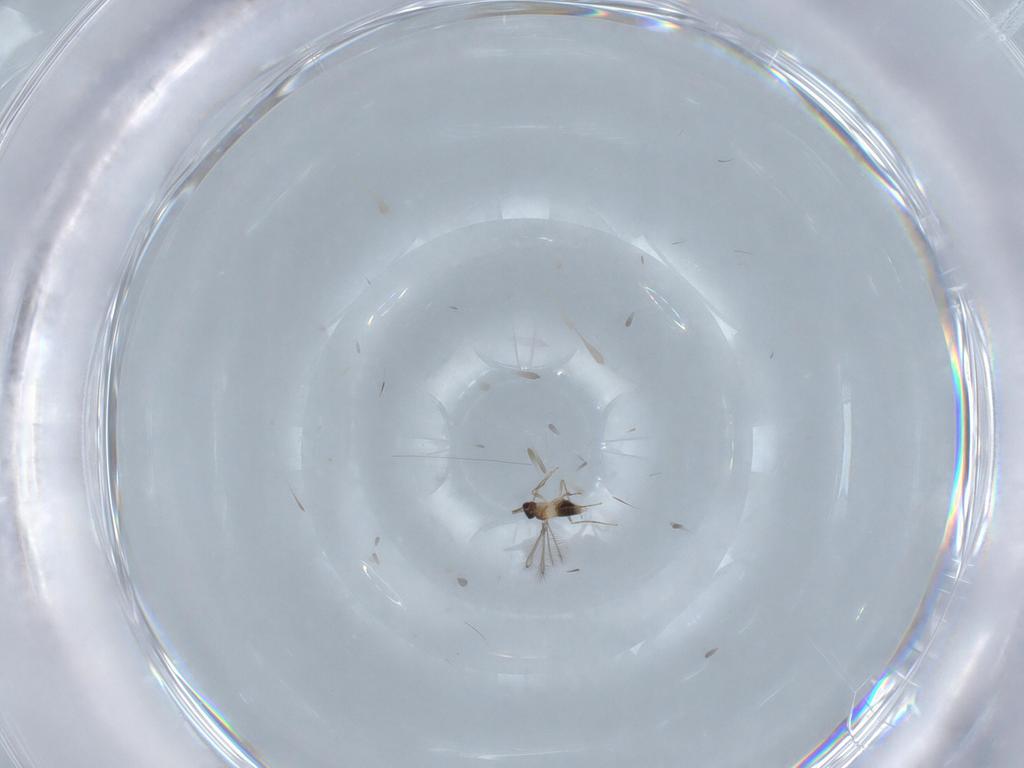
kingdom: Animalia
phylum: Arthropoda
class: Insecta
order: Hymenoptera
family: Mymaridae
